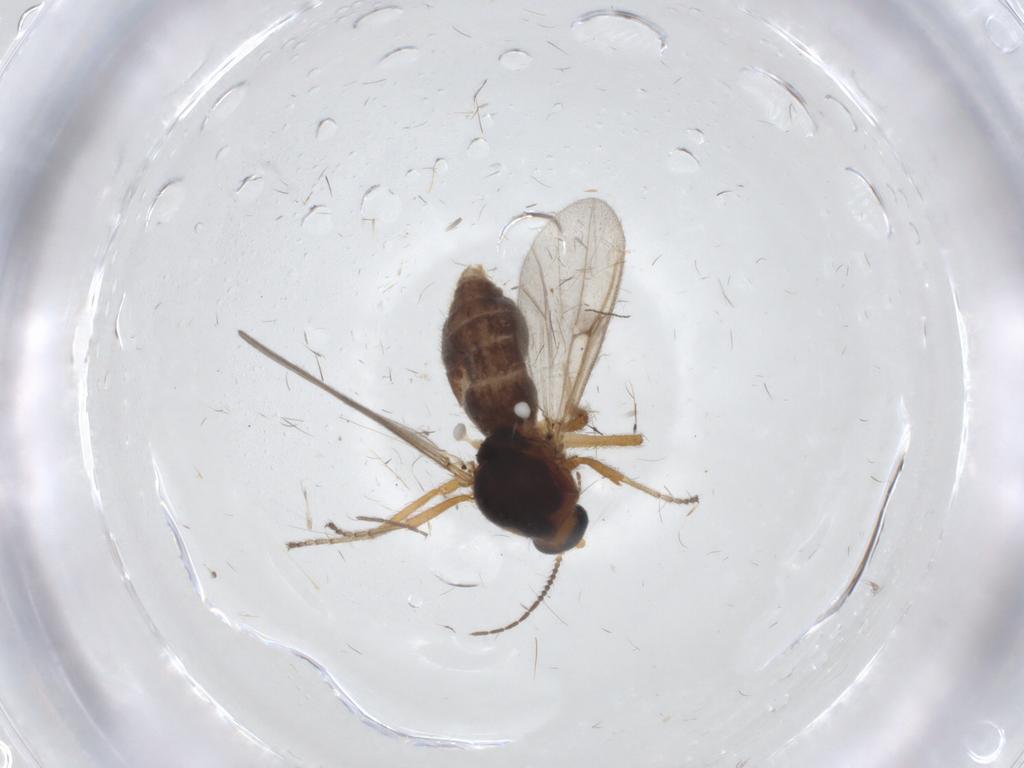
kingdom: Animalia
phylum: Arthropoda
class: Insecta
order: Diptera
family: Ceratopogonidae
